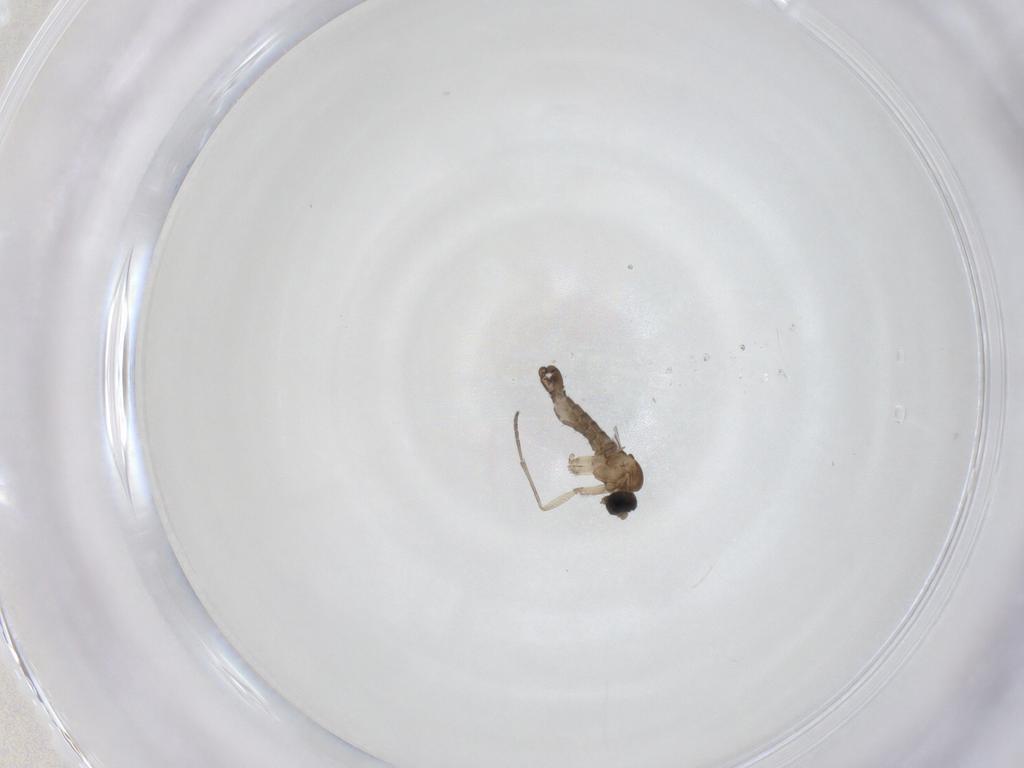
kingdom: Animalia
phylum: Arthropoda
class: Insecta
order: Diptera
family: Sciaridae
